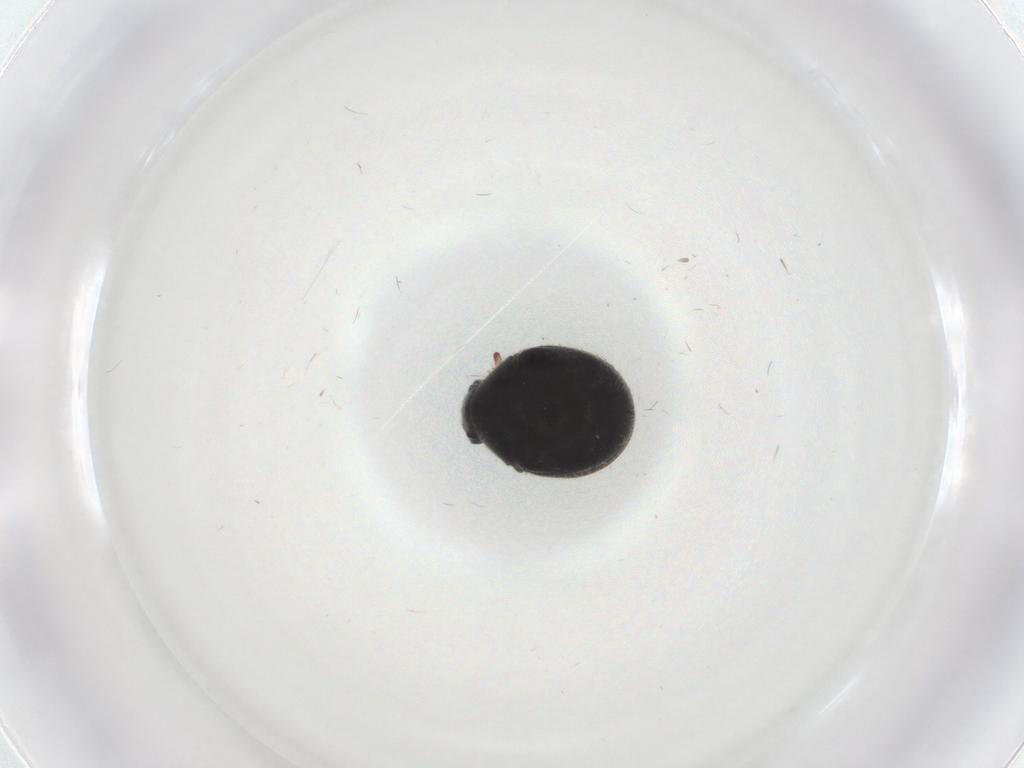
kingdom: Animalia
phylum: Arthropoda
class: Insecta
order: Coleoptera
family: Ptinidae
